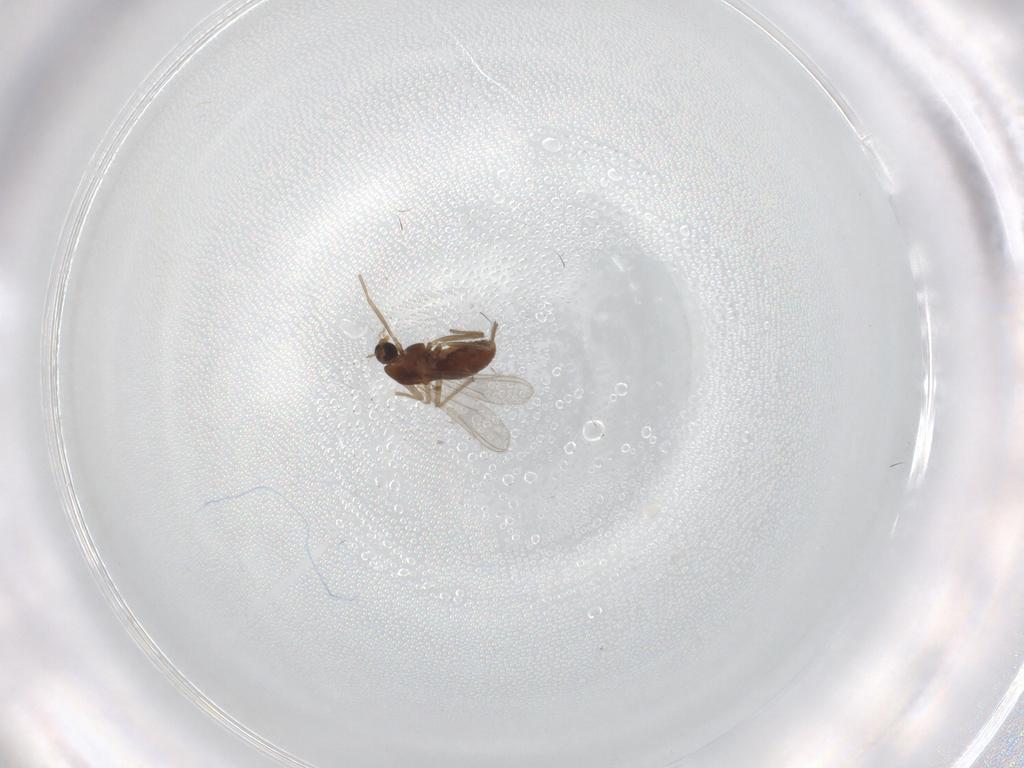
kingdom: Animalia
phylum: Arthropoda
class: Insecta
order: Diptera
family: Chironomidae
